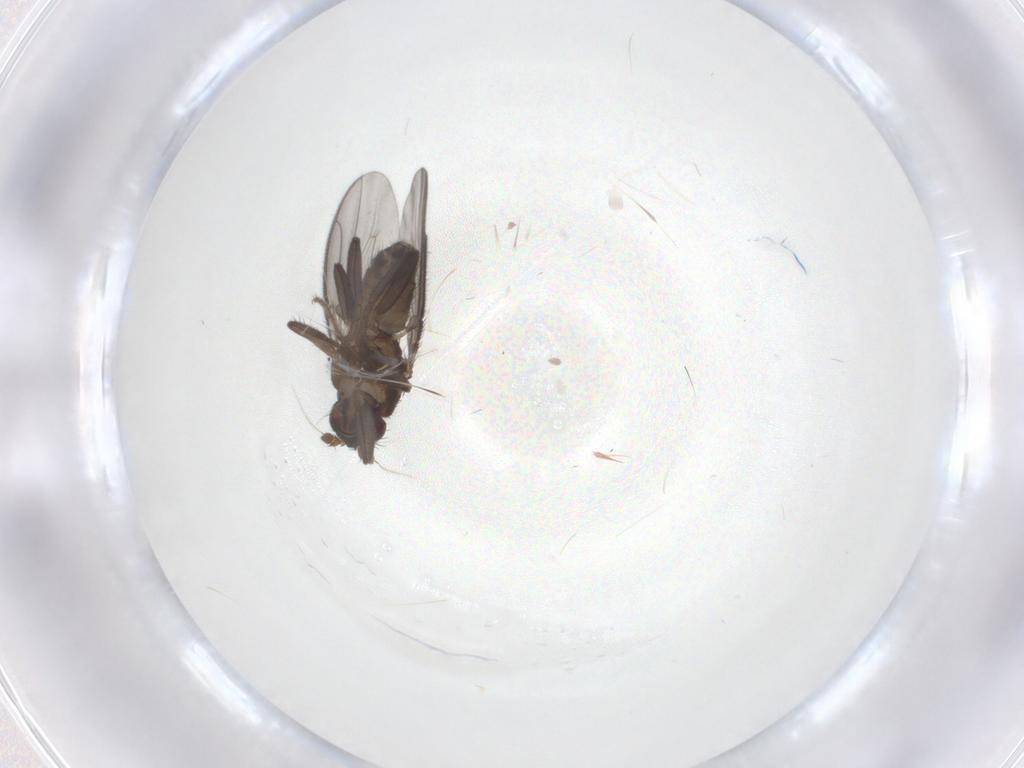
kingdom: Animalia
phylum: Arthropoda
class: Insecta
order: Diptera
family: Sphaeroceridae
